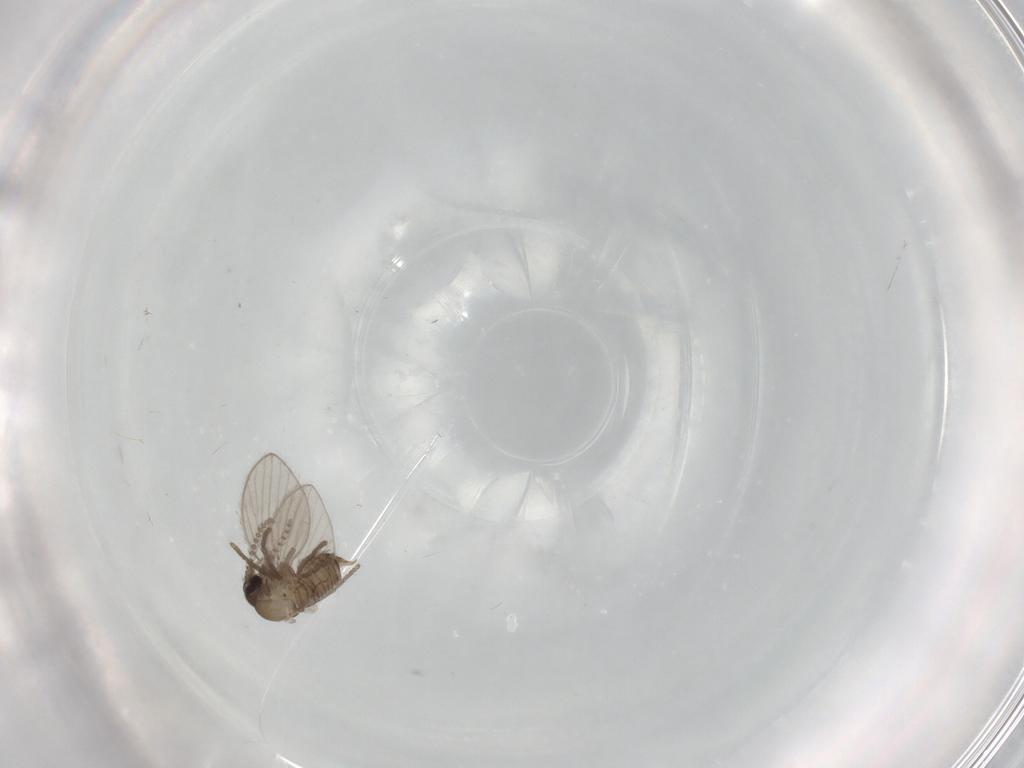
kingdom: Animalia
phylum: Arthropoda
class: Insecta
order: Diptera
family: Psychodidae
